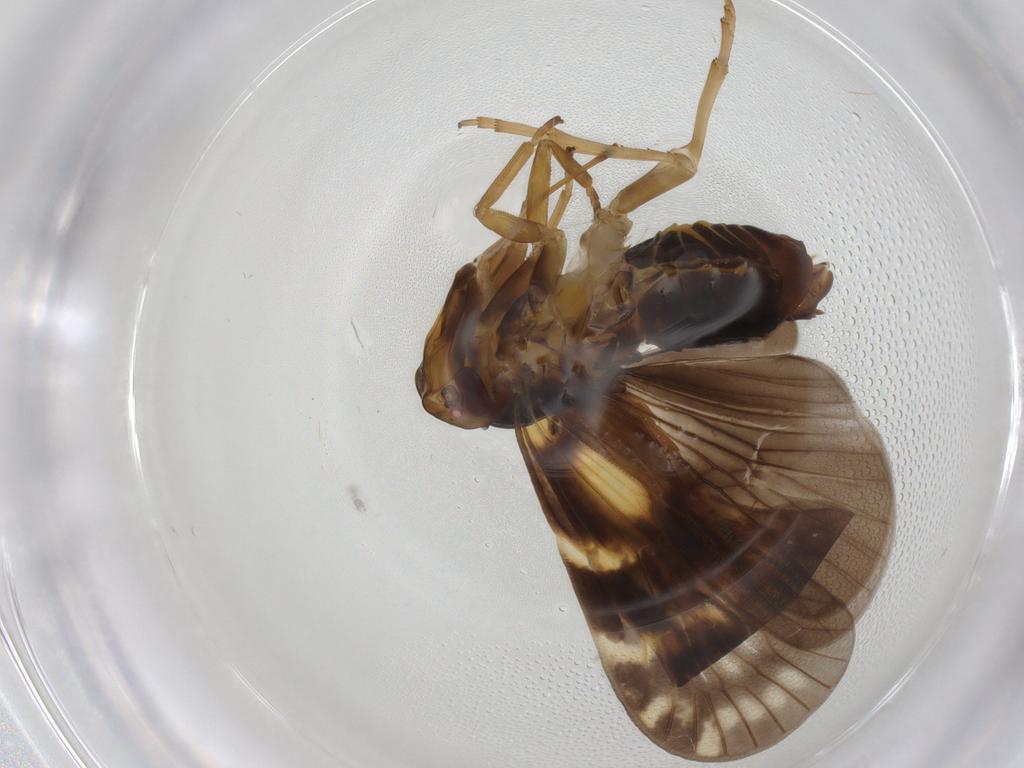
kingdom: Animalia
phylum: Arthropoda
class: Insecta
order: Hemiptera
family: Cixiidae
